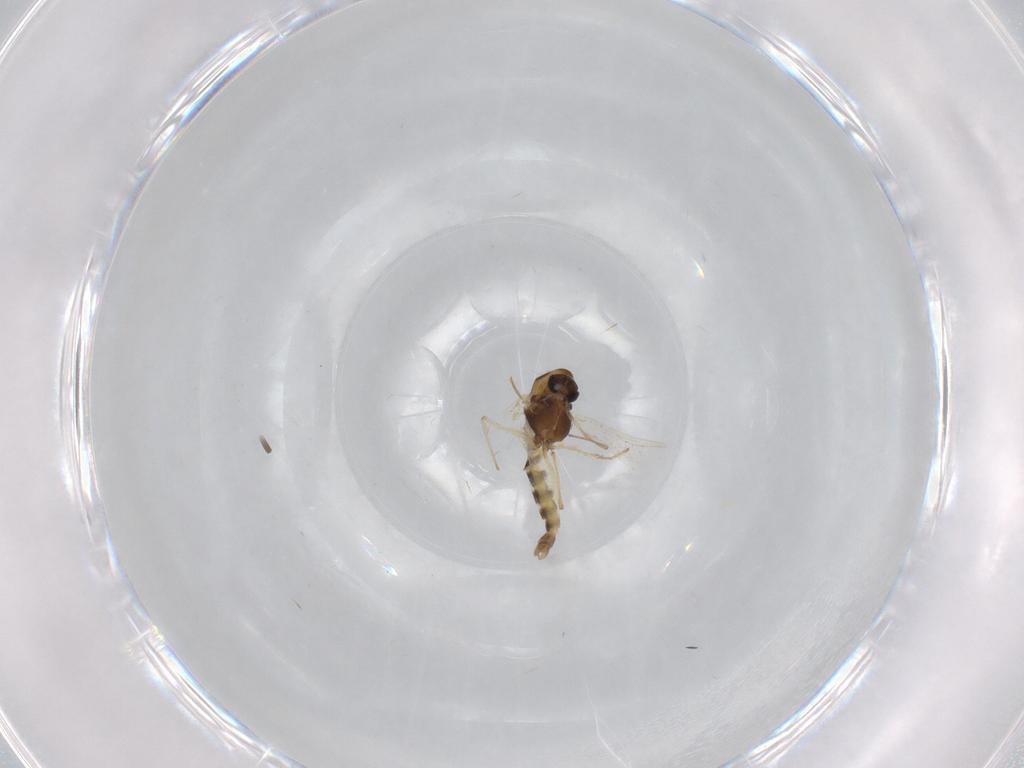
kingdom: Animalia
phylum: Arthropoda
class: Insecta
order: Diptera
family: Chironomidae
